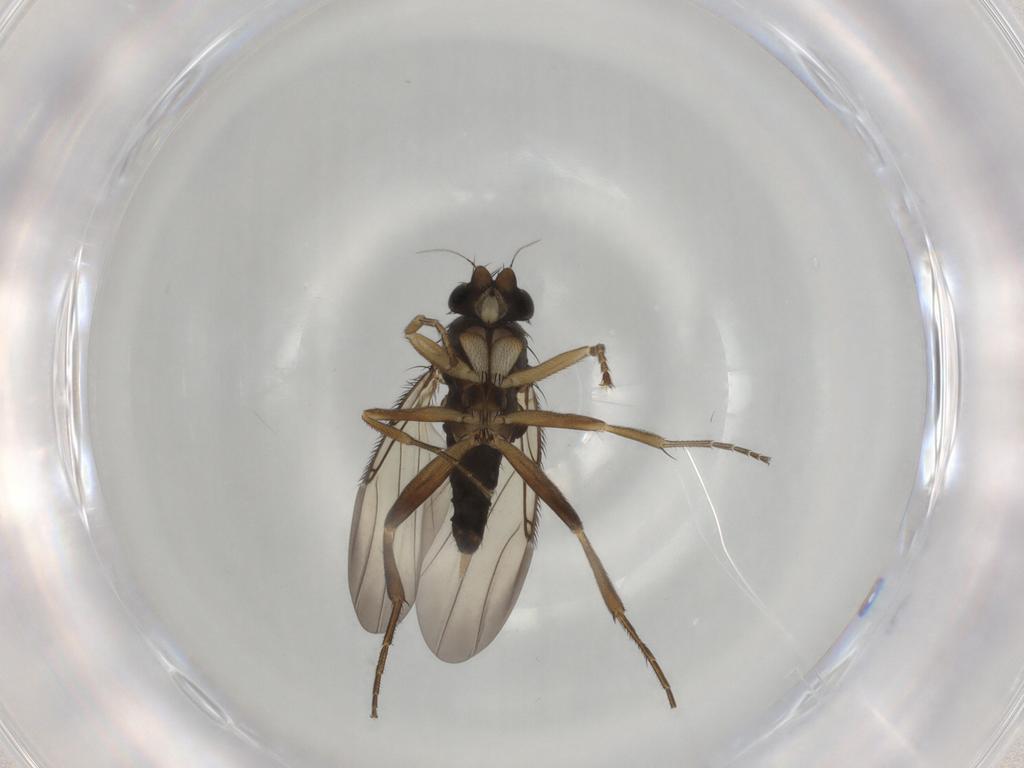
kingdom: Animalia
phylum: Arthropoda
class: Insecta
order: Diptera
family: Phoridae
